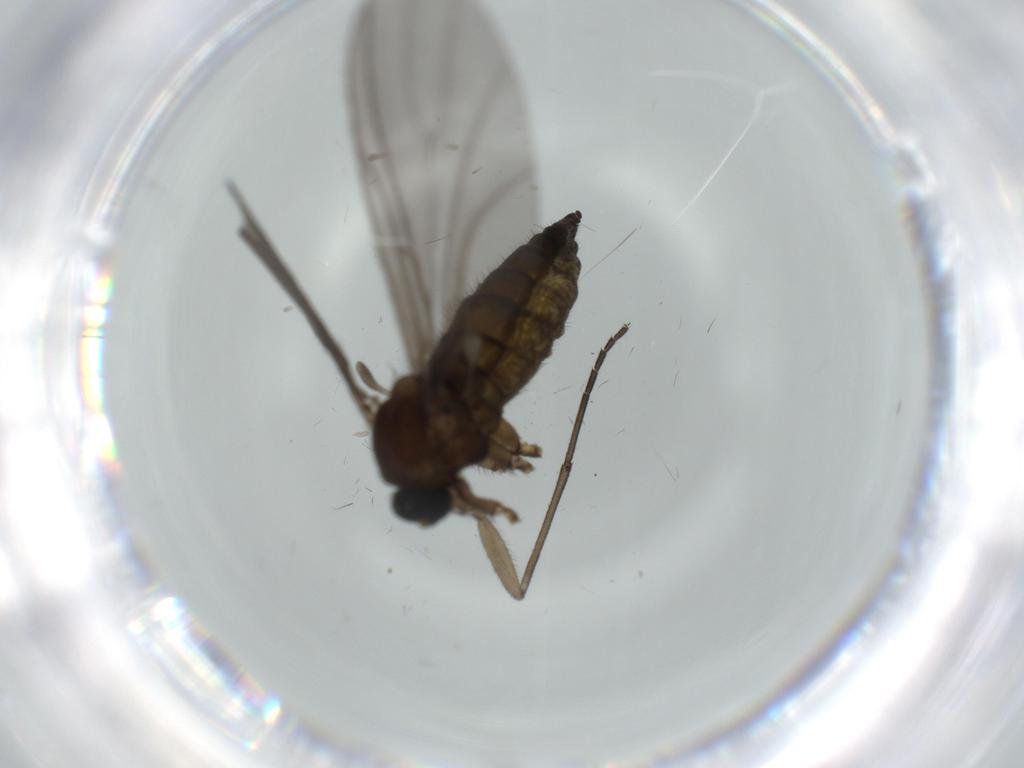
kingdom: Animalia
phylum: Arthropoda
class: Insecta
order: Diptera
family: Sciaridae
